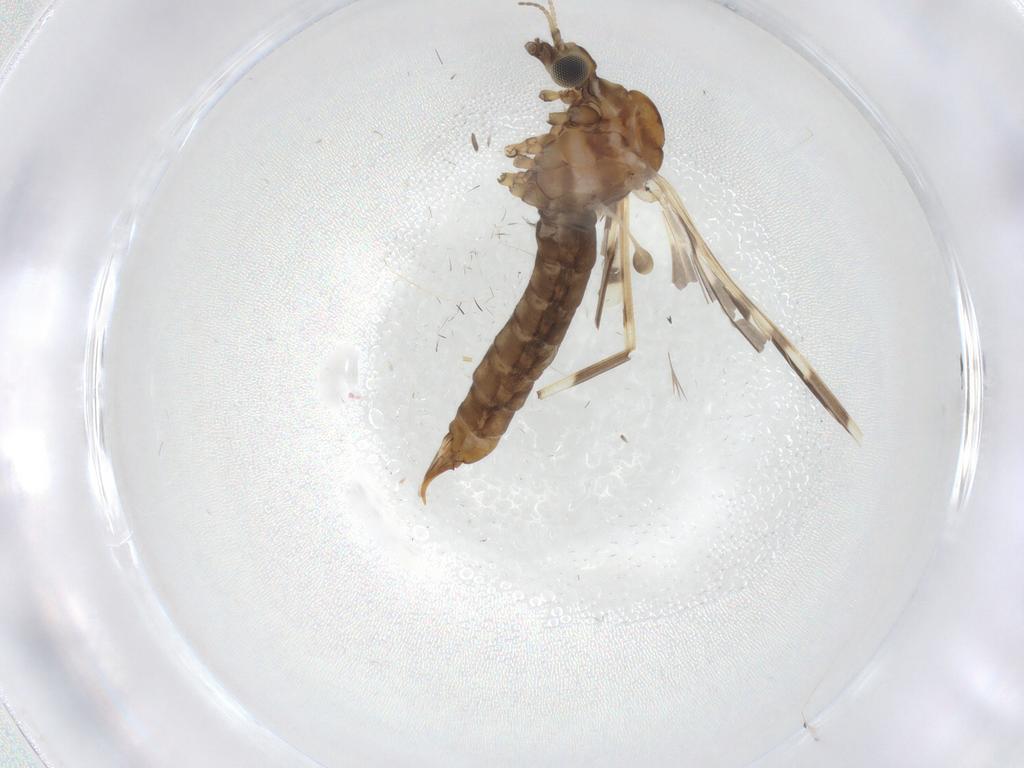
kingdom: Animalia
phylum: Arthropoda
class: Insecta
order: Diptera
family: Limoniidae
